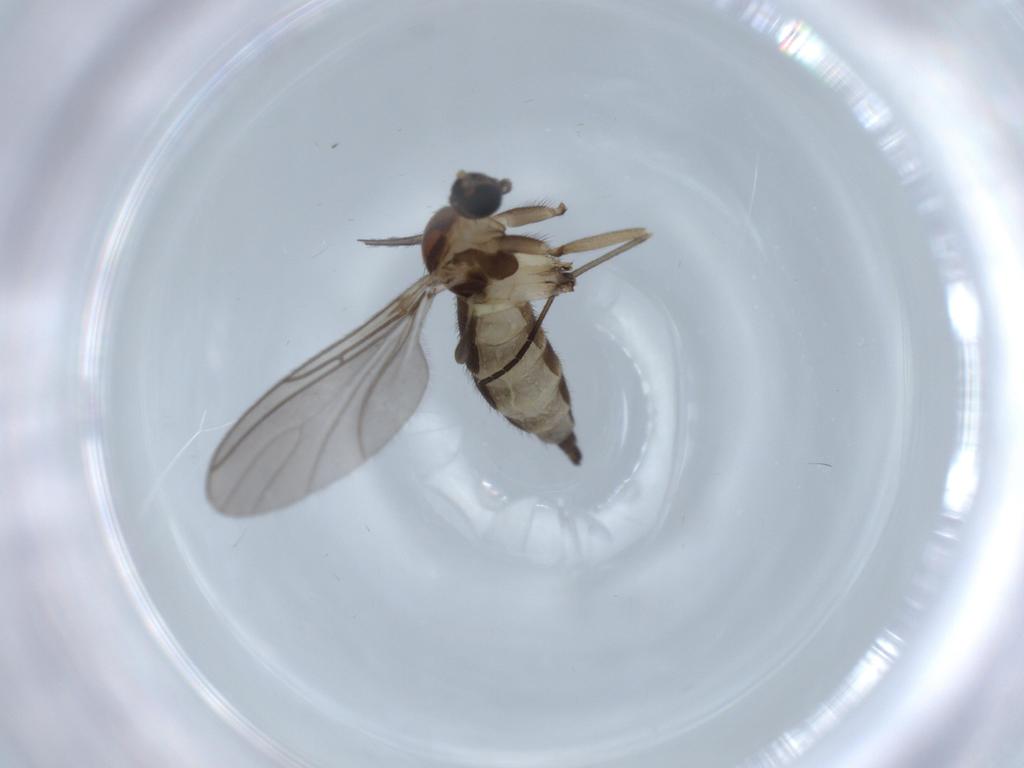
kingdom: Animalia
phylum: Arthropoda
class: Insecta
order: Diptera
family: Sciaridae
